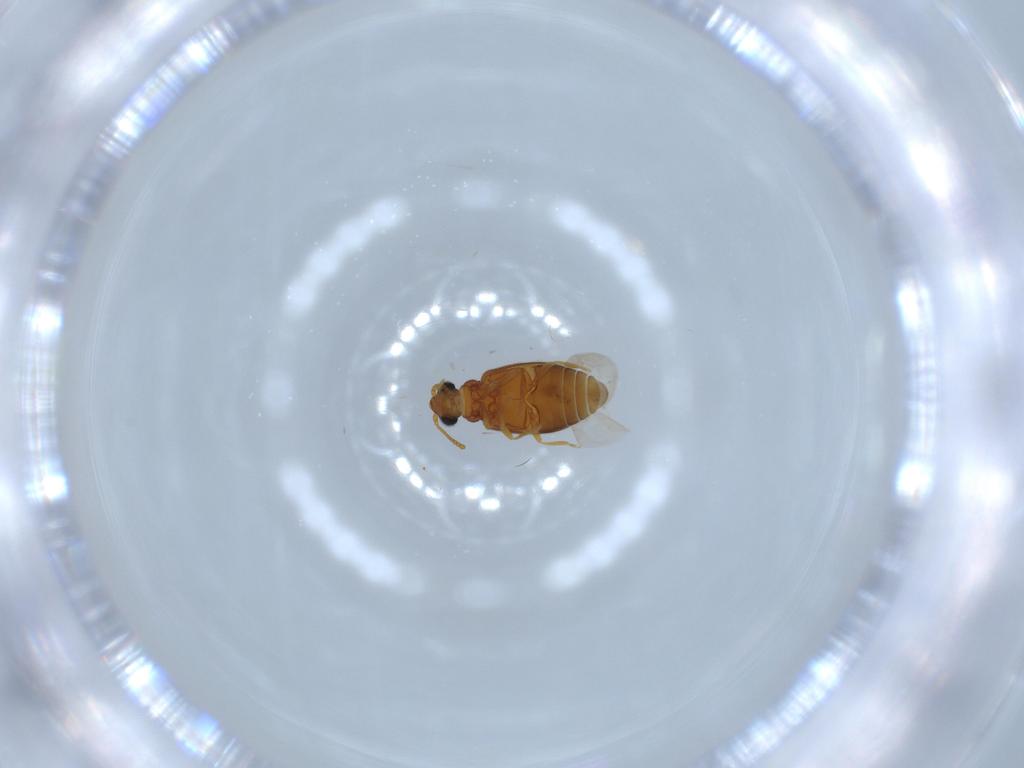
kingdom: Animalia
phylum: Arthropoda
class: Insecta
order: Coleoptera
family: Aderidae
